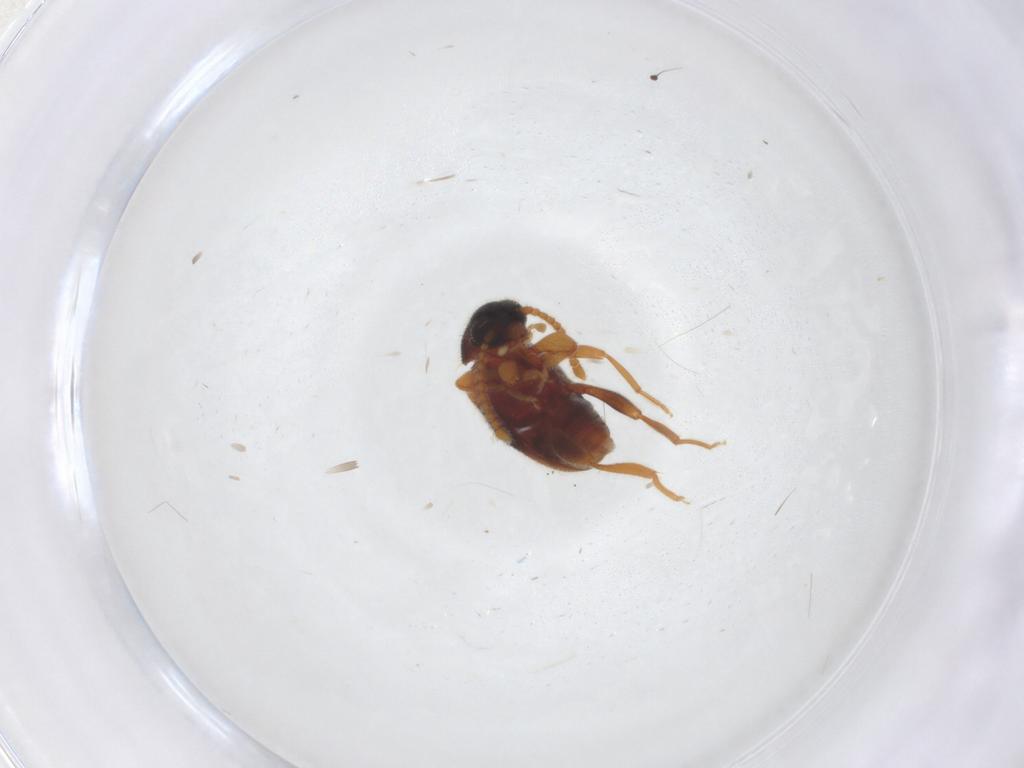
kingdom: Animalia
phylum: Arthropoda
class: Insecta
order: Coleoptera
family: Aderidae
